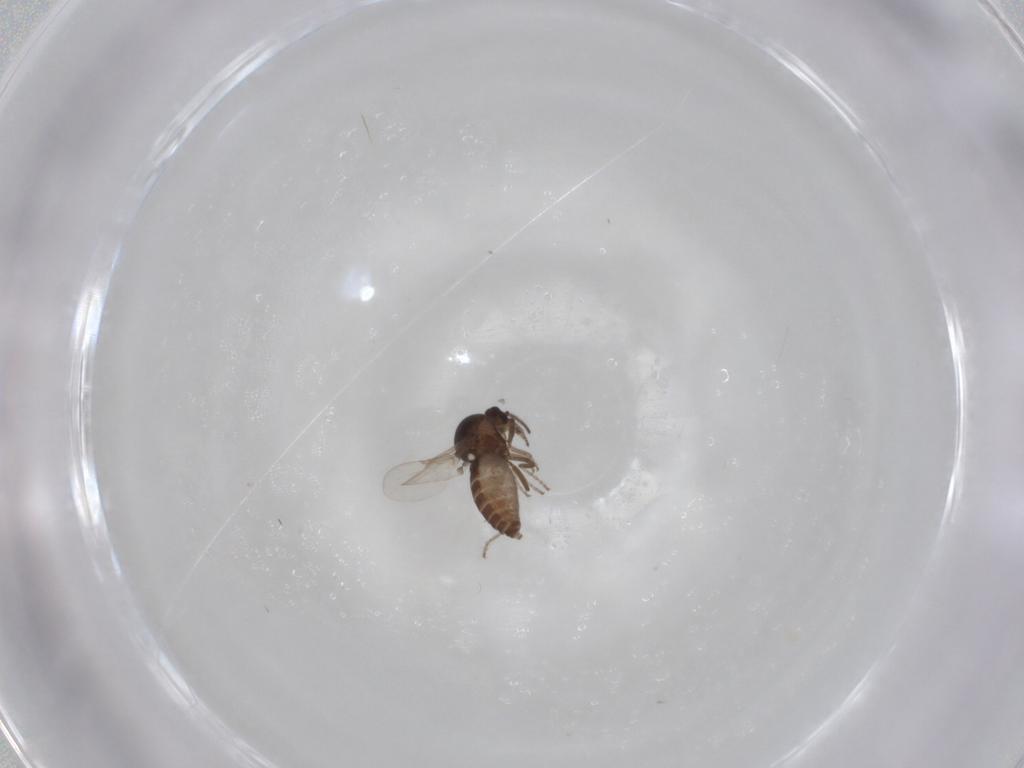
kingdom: Animalia
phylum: Arthropoda
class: Insecta
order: Diptera
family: Ceratopogonidae
